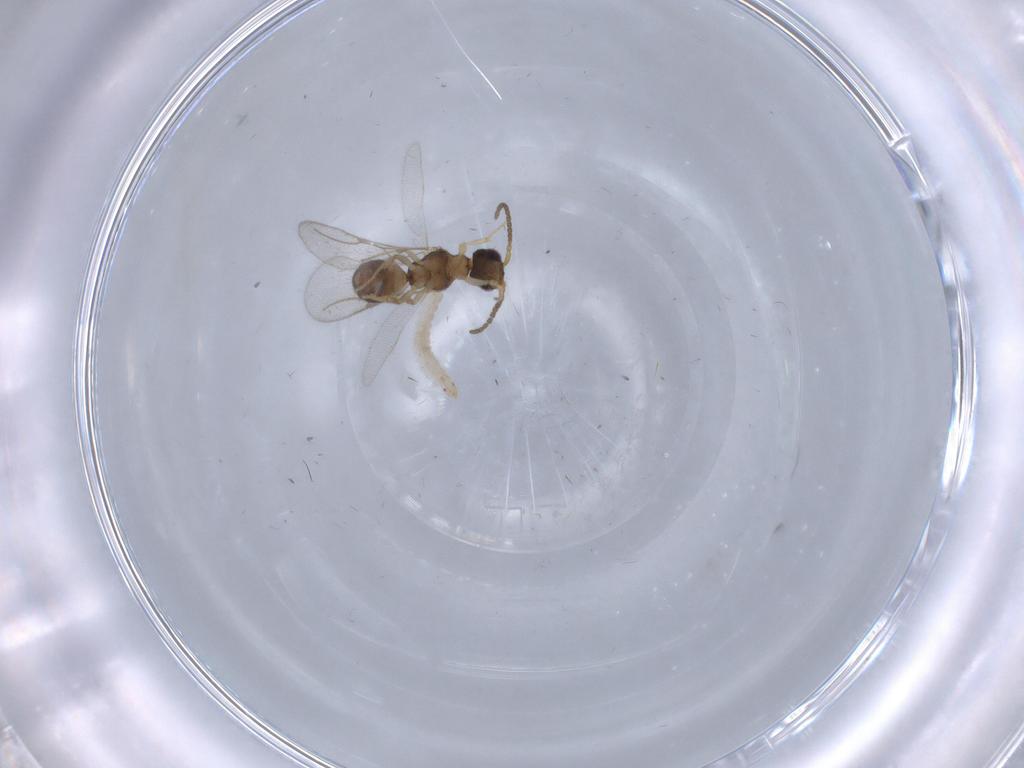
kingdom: Animalia
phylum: Arthropoda
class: Insecta
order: Hymenoptera
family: Bethylidae
